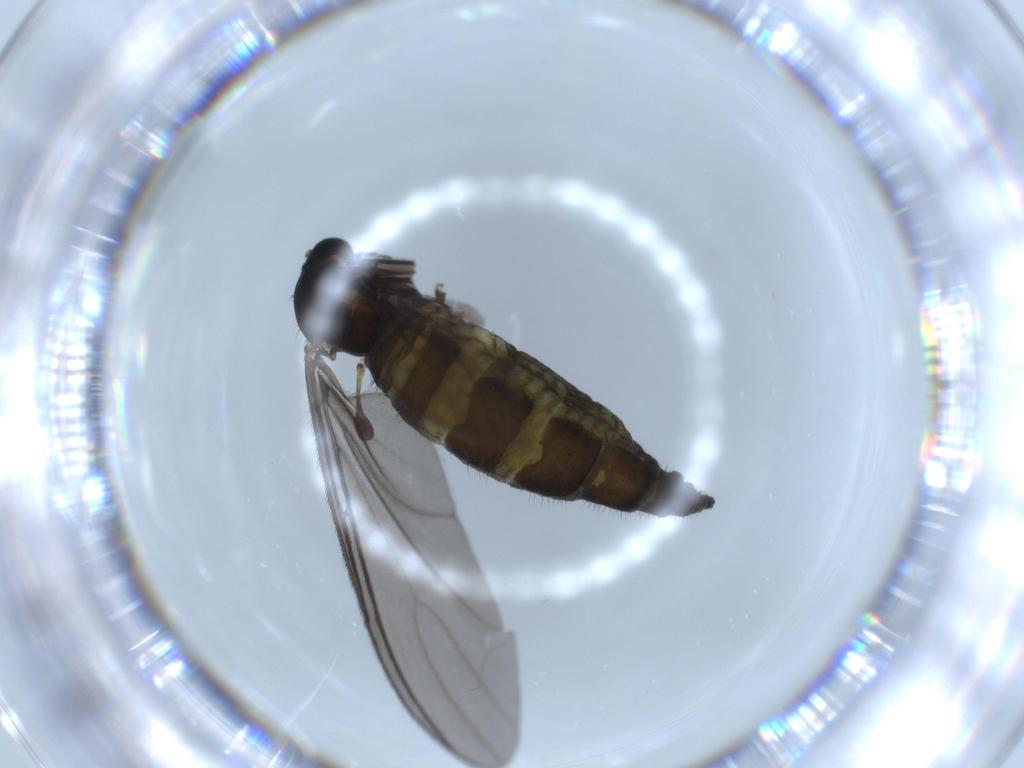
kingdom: Animalia
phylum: Arthropoda
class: Insecta
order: Diptera
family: Sciaridae
